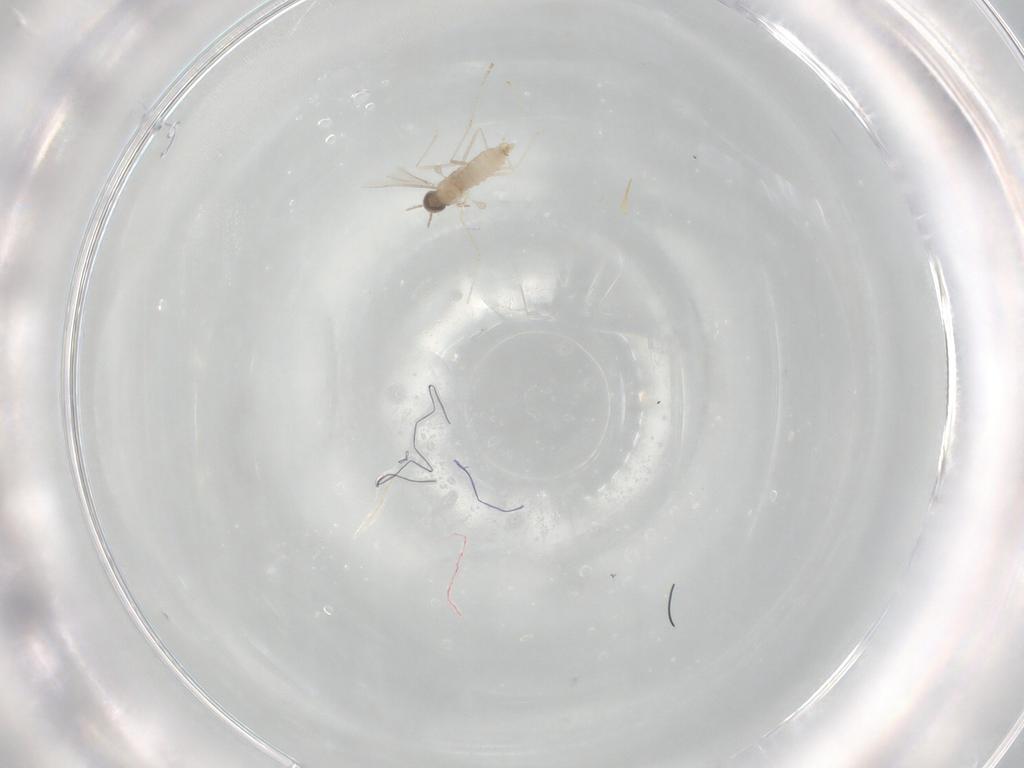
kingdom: Animalia
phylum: Arthropoda
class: Insecta
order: Diptera
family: Cecidomyiidae
